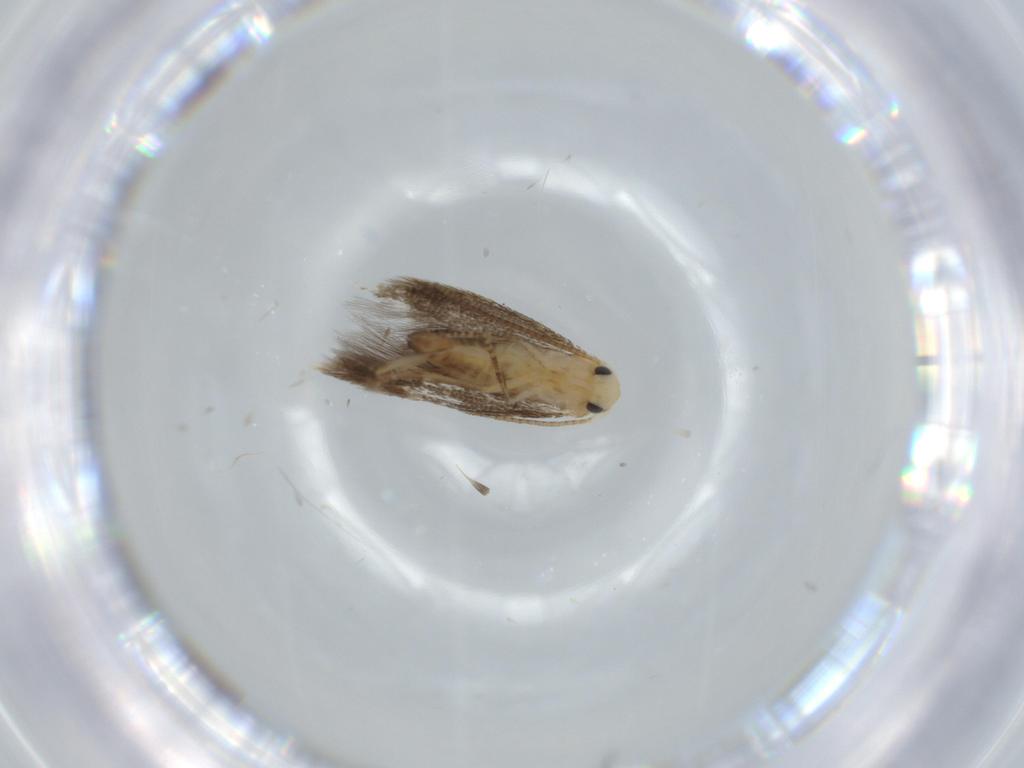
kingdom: Animalia
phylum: Arthropoda
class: Insecta
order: Lepidoptera
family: Bucculatricidae
